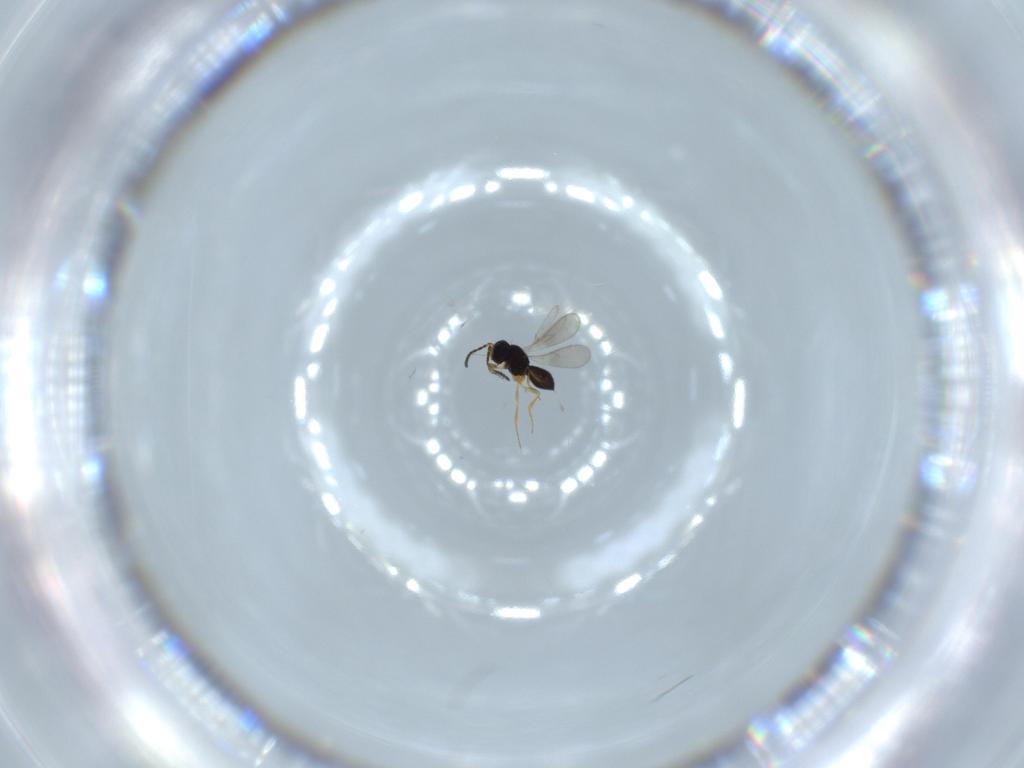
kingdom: Animalia
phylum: Arthropoda
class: Insecta
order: Hymenoptera
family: Scelionidae
